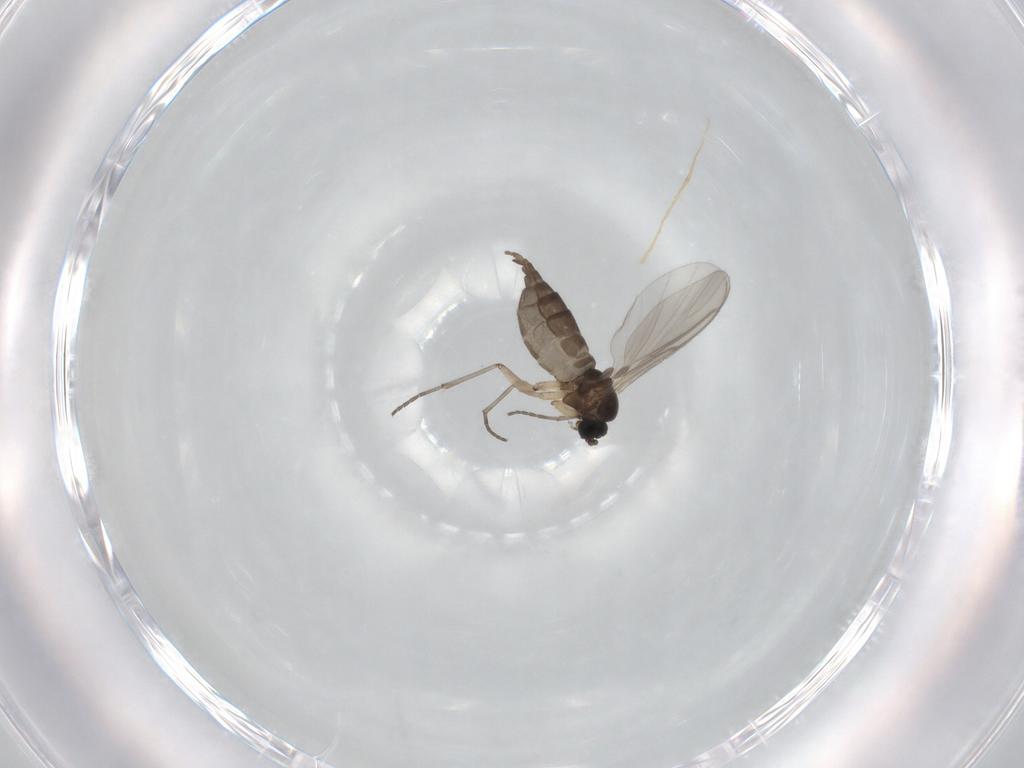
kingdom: Animalia
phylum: Arthropoda
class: Insecta
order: Diptera
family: Sciaridae
